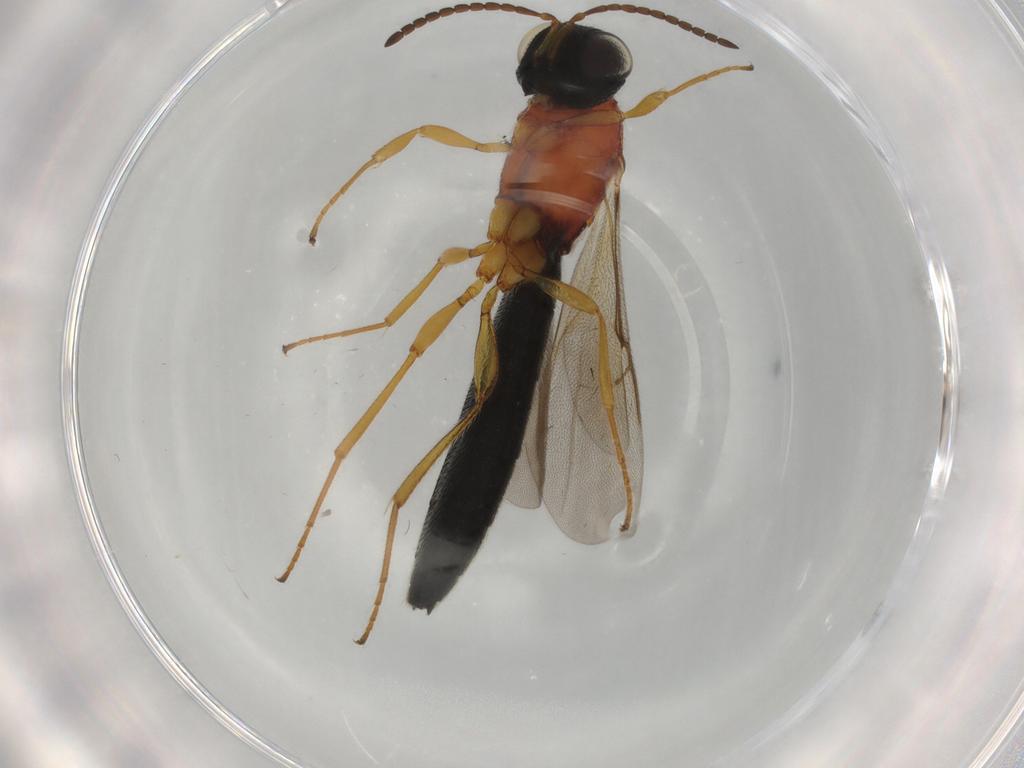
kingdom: Animalia
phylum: Arthropoda
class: Insecta
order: Hymenoptera
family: Scelionidae
